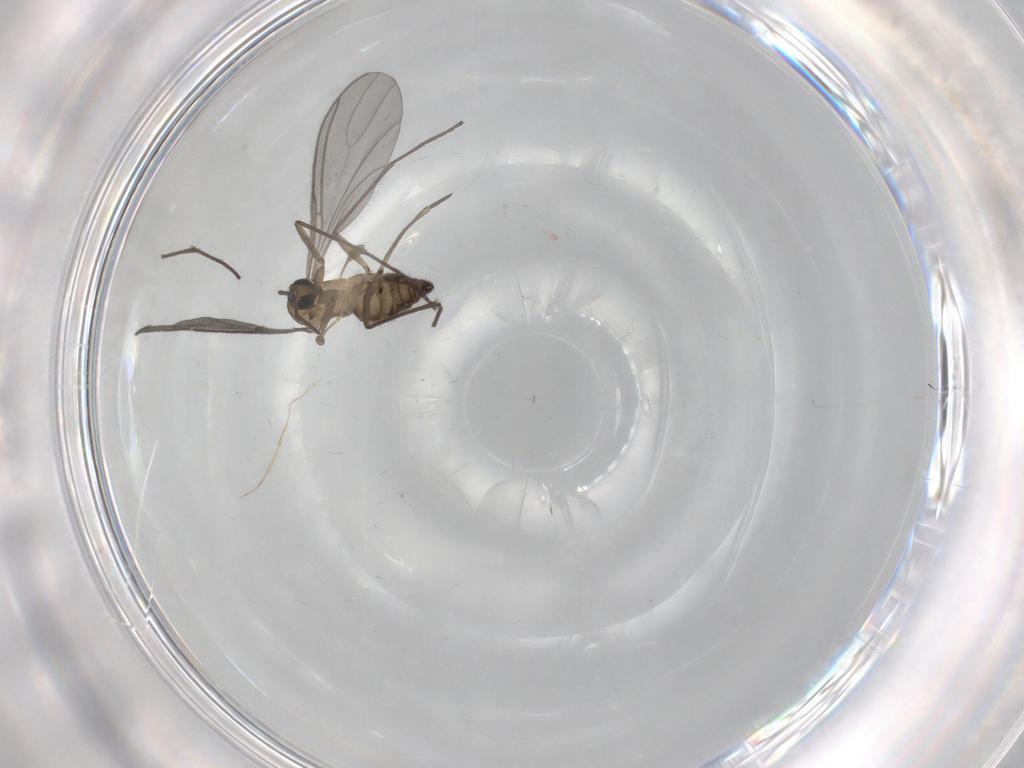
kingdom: Animalia
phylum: Arthropoda
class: Insecta
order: Diptera
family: Sciaridae
